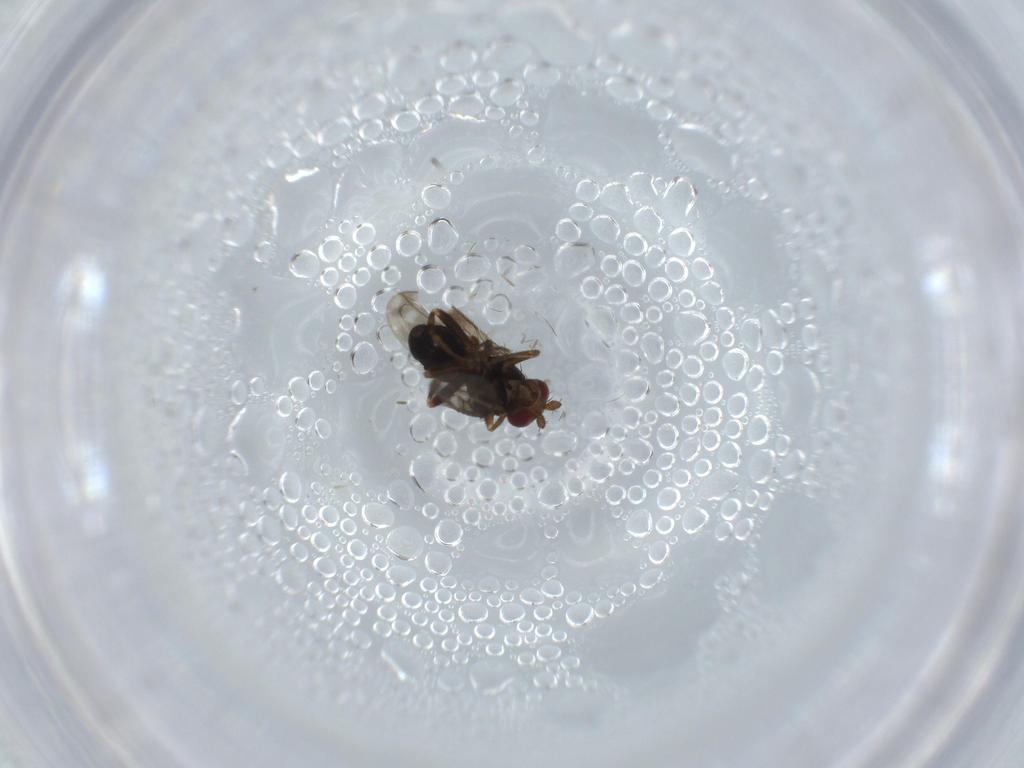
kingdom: Animalia
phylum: Arthropoda
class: Insecta
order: Diptera
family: Sphaeroceridae
